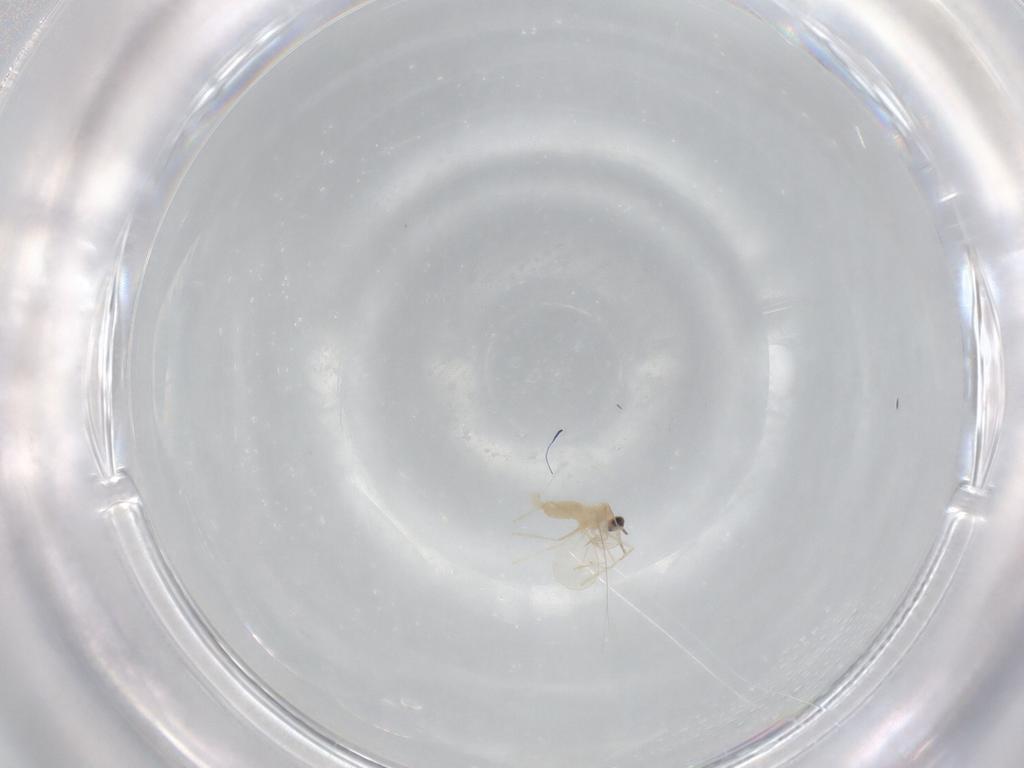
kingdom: Animalia
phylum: Arthropoda
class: Insecta
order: Diptera
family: Cecidomyiidae
